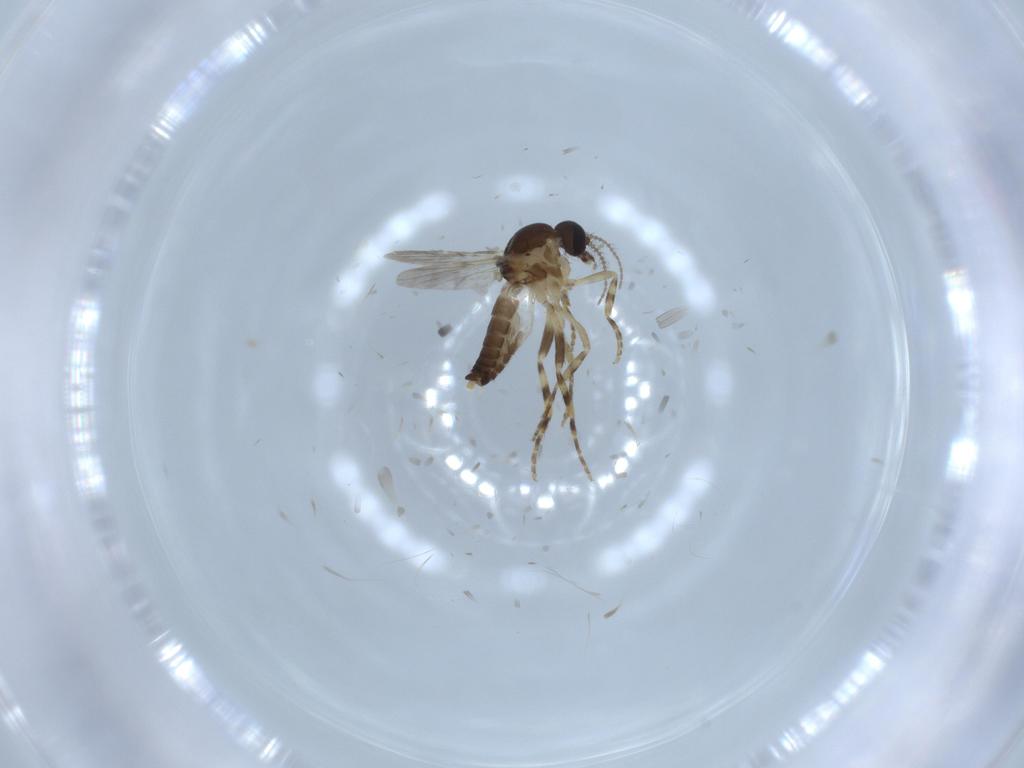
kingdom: Animalia
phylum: Arthropoda
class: Insecta
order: Diptera
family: Ceratopogonidae
